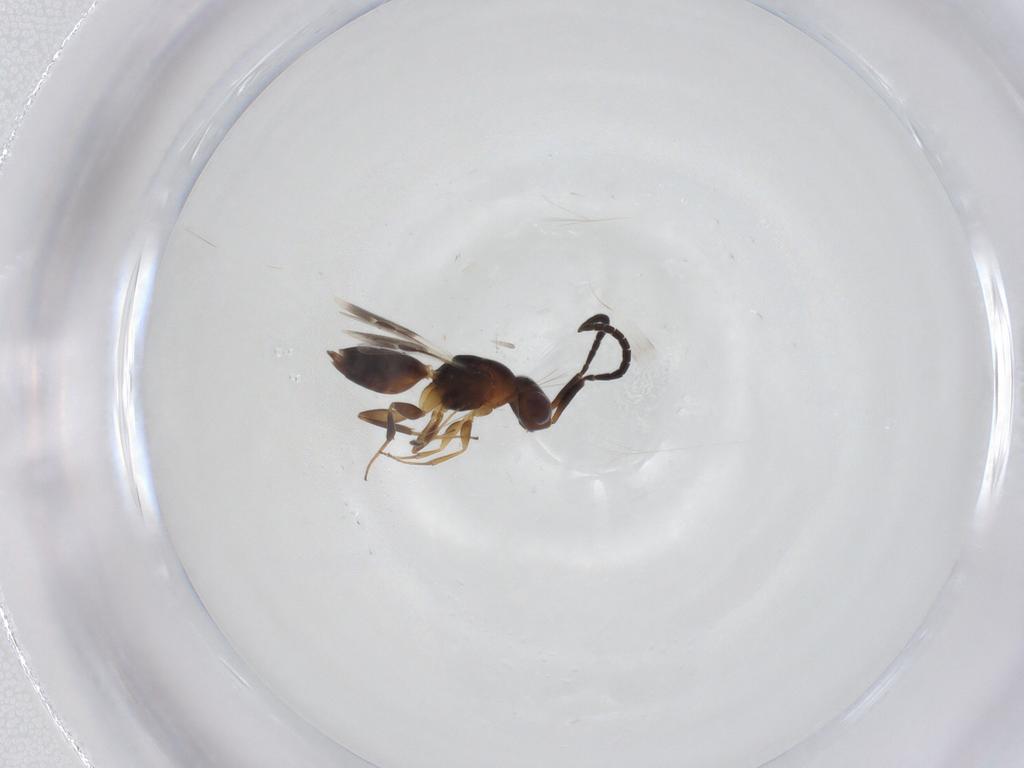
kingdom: Animalia
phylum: Arthropoda
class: Insecta
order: Hymenoptera
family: Megaspilidae
